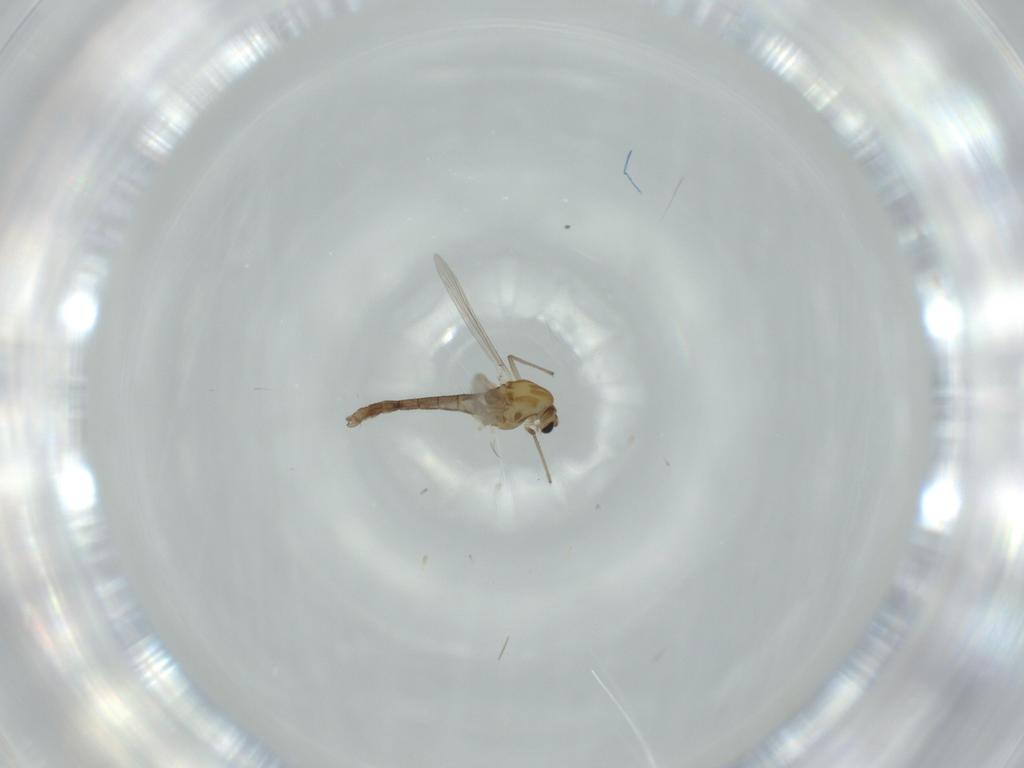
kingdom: Animalia
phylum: Arthropoda
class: Insecta
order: Diptera
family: Chironomidae
